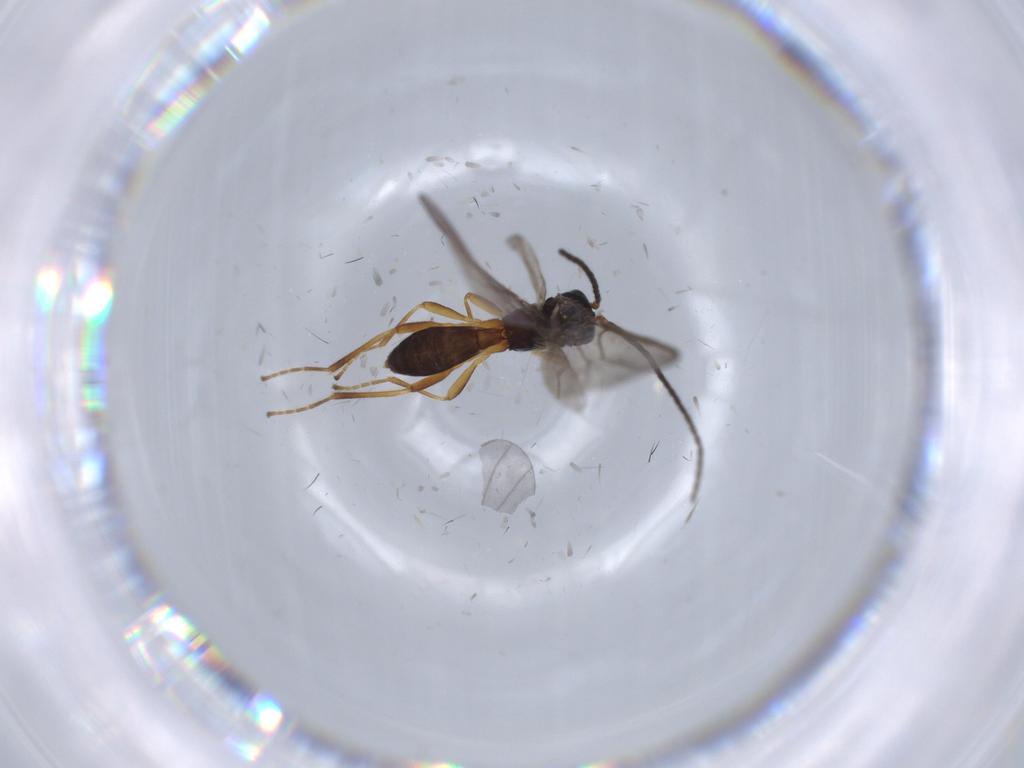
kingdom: Animalia
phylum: Arthropoda
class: Insecta
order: Hymenoptera
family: Braconidae
